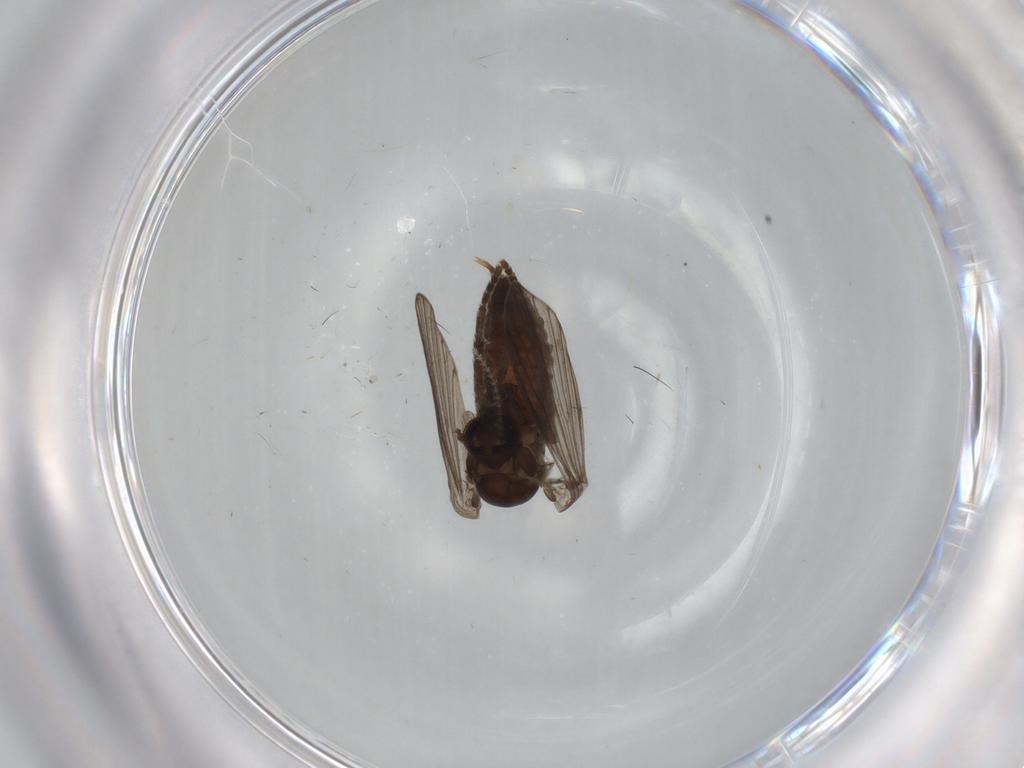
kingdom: Animalia
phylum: Arthropoda
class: Insecta
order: Diptera
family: Psychodidae
